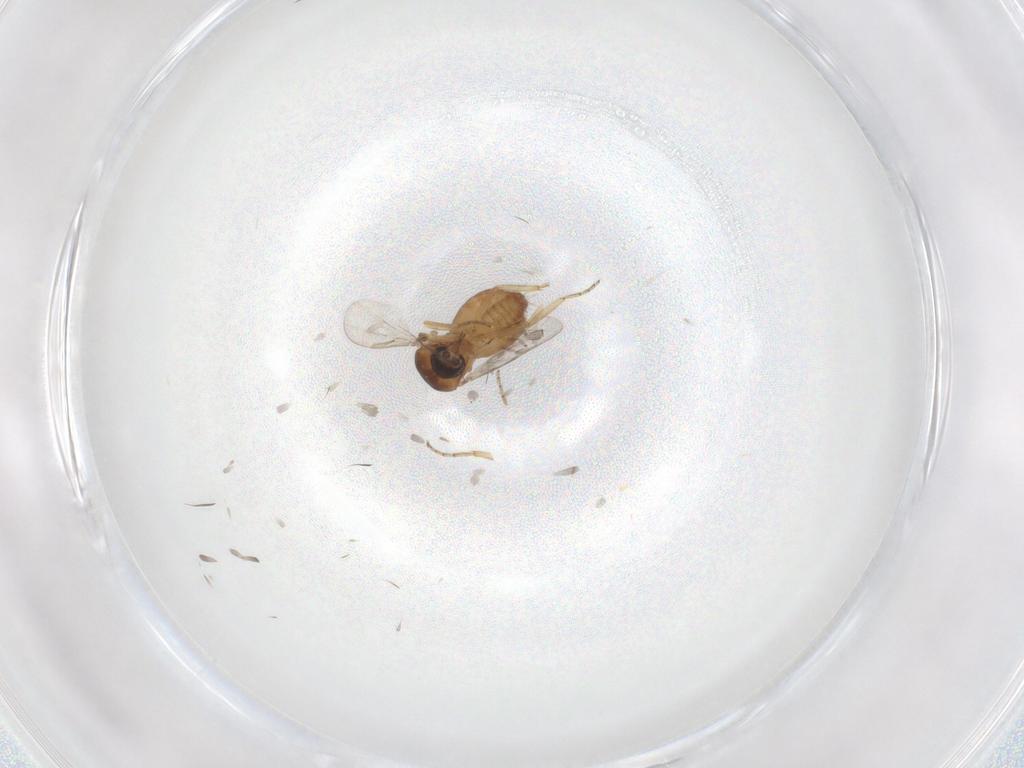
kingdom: Animalia
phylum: Arthropoda
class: Insecta
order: Diptera
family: Ceratopogonidae
